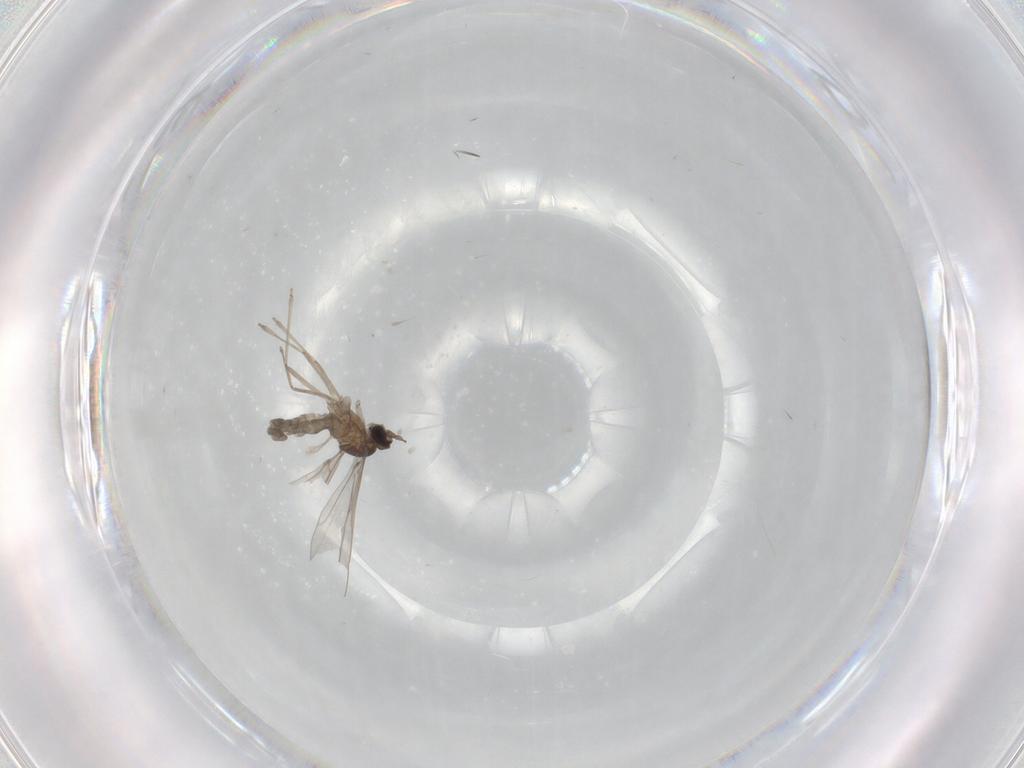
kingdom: Animalia
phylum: Arthropoda
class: Insecta
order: Diptera
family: Cecidomyiidae
